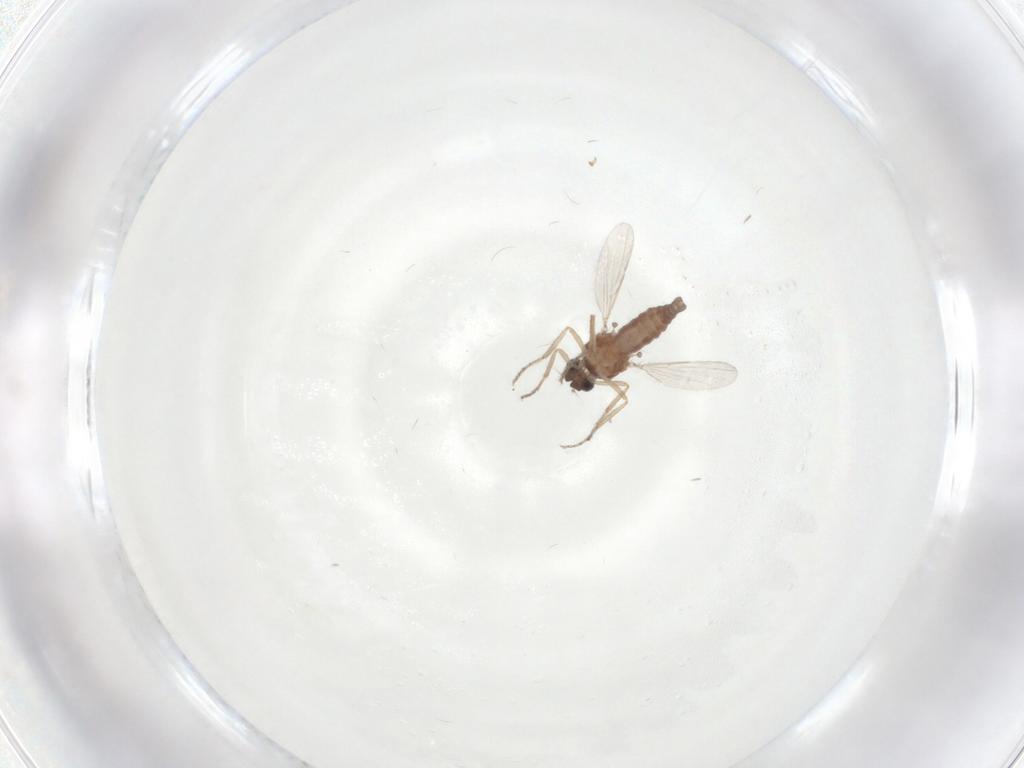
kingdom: Animalia
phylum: Arthropoda
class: Insecta
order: Diptera
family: Ceratopogonidae
